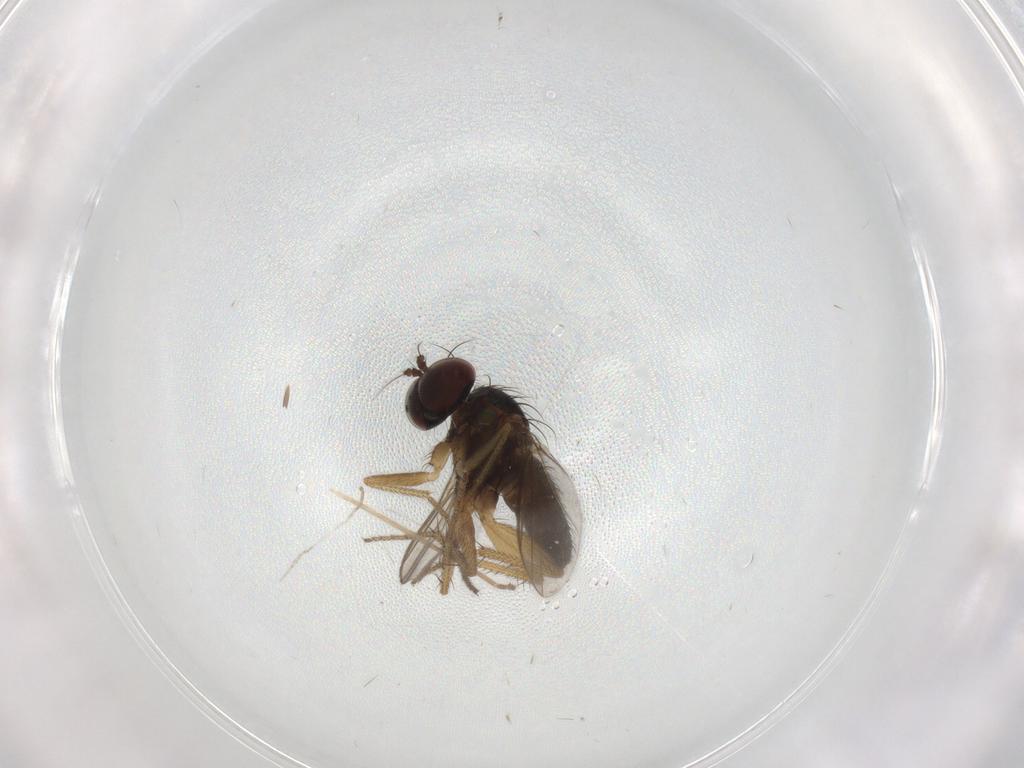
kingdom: Animalia
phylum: Arthropoda
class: Insecta
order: Diptera
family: Chironomidae
